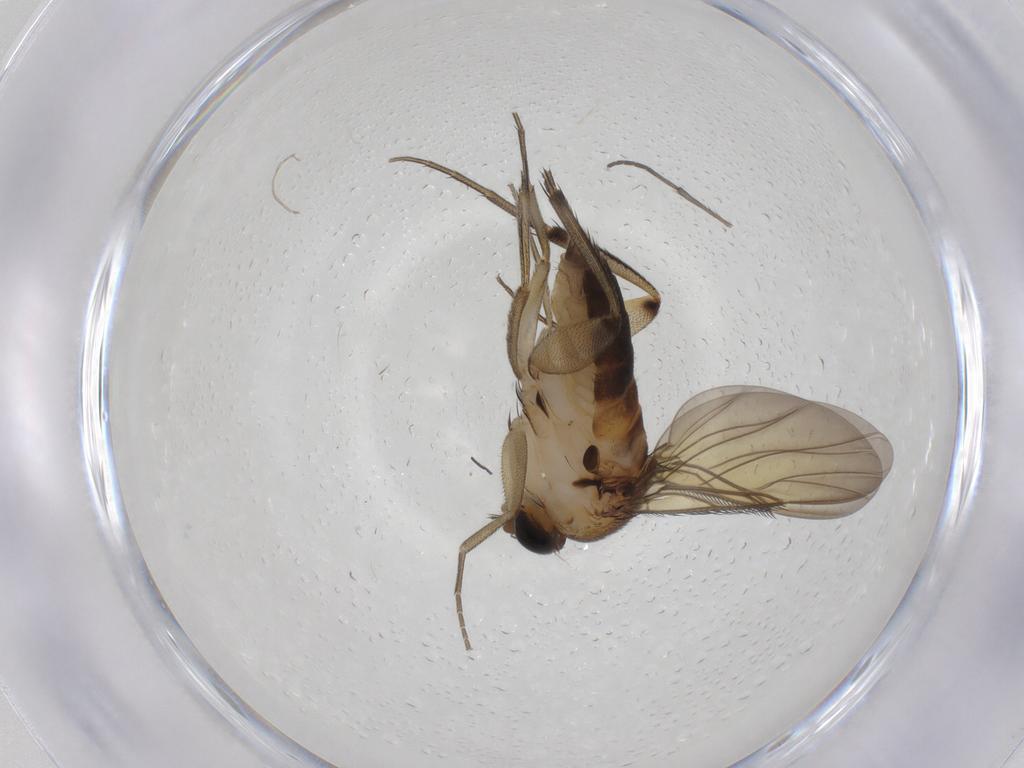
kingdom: Animalia
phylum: Arthropoda
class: Insecta
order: Diptera
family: Phoridae
